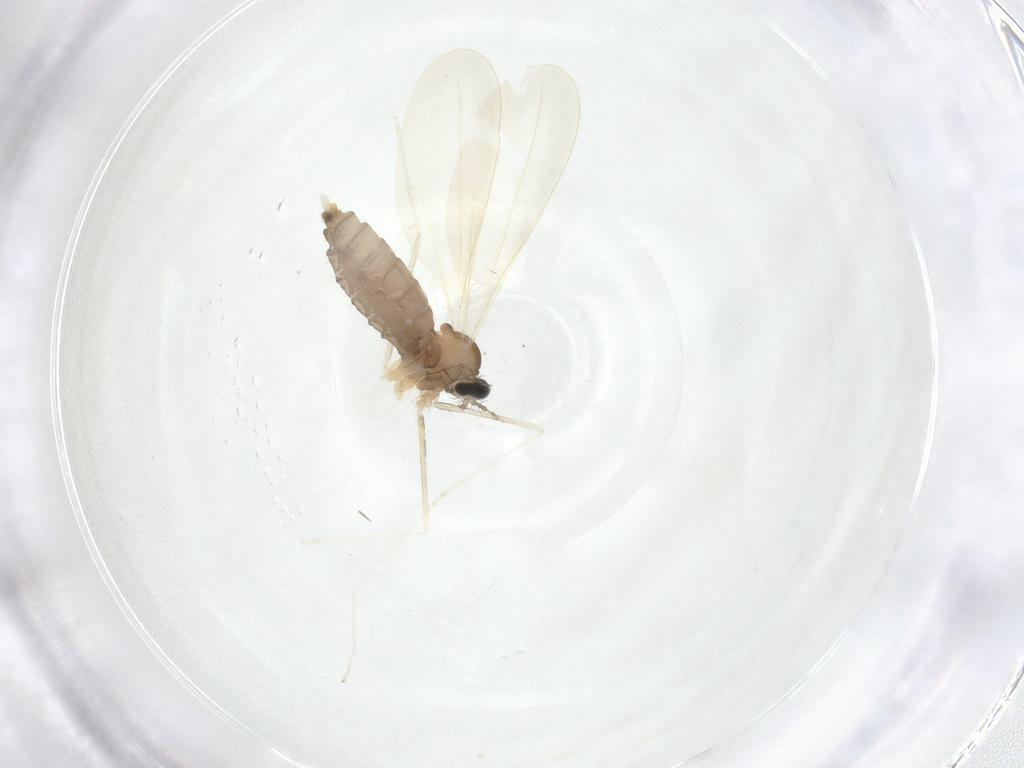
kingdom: Animalia
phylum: Arthropoda
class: Insecta
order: Diptera
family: Cecidomyiidae
